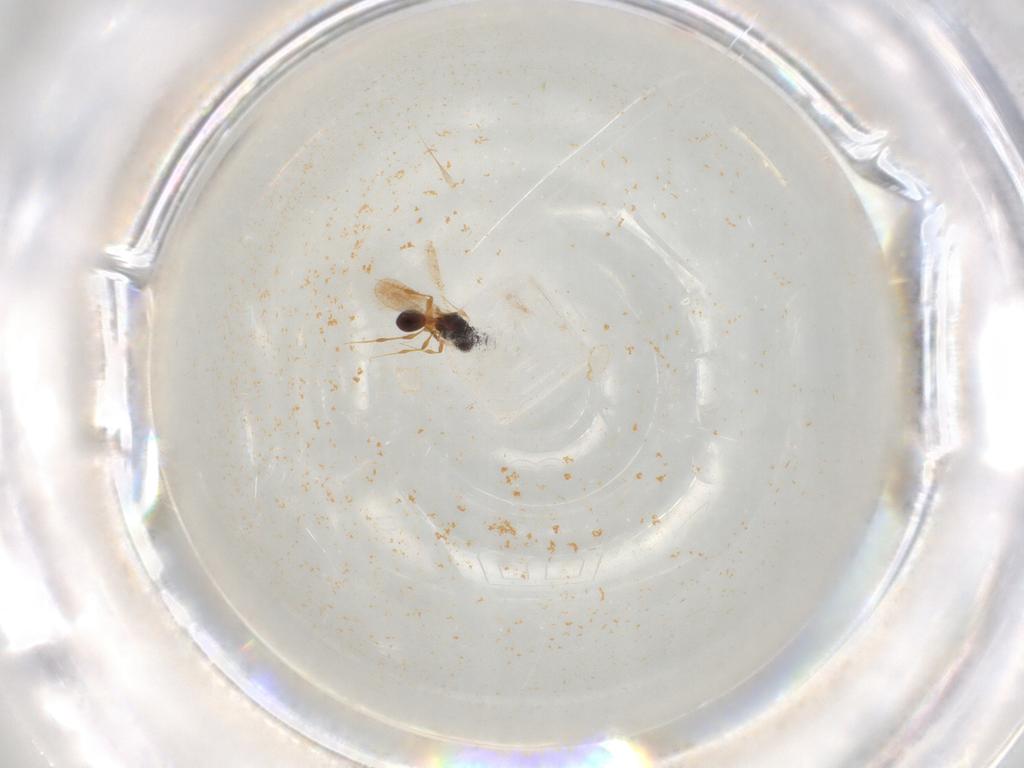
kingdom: Animalia
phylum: Arthropoda
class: Insecta
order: Hymenoptera
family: Bethylidae
